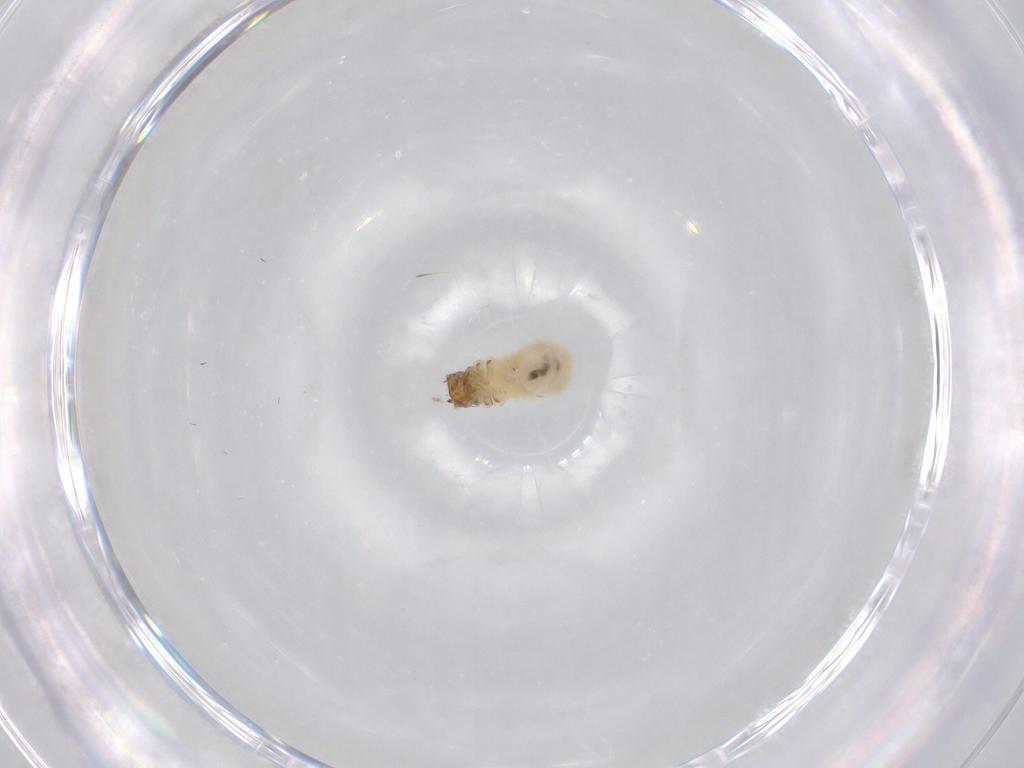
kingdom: Animalia
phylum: Arthropoda
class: Insecta
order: Coleoptera
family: Chrysomelidae
